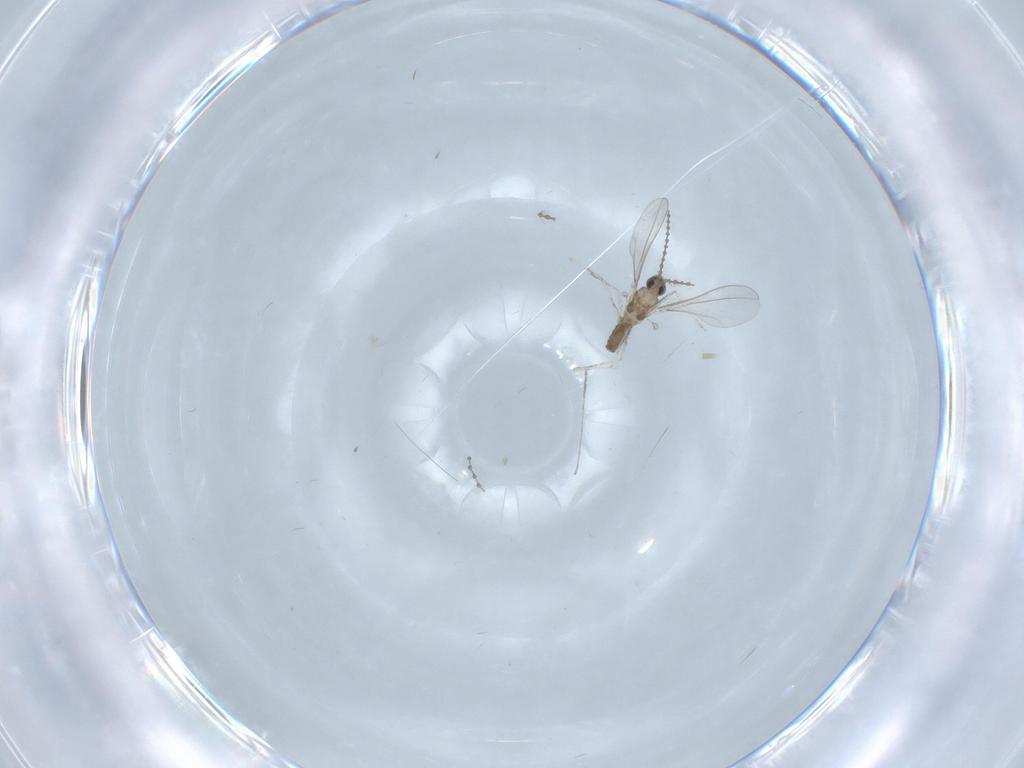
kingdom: Animalia
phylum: Arthropoda
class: Insecta
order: Diptera
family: Cecidomyiidae
